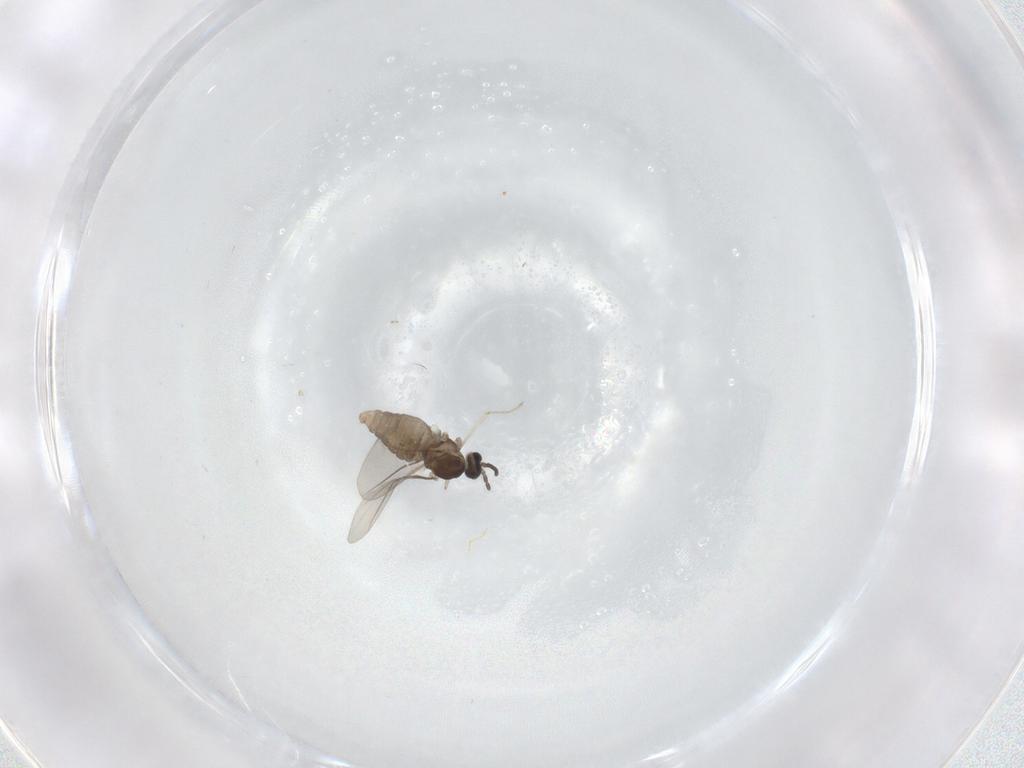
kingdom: Animalia
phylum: Arthropoda
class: Insecta
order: Diptera
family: Cecidomyiidae
